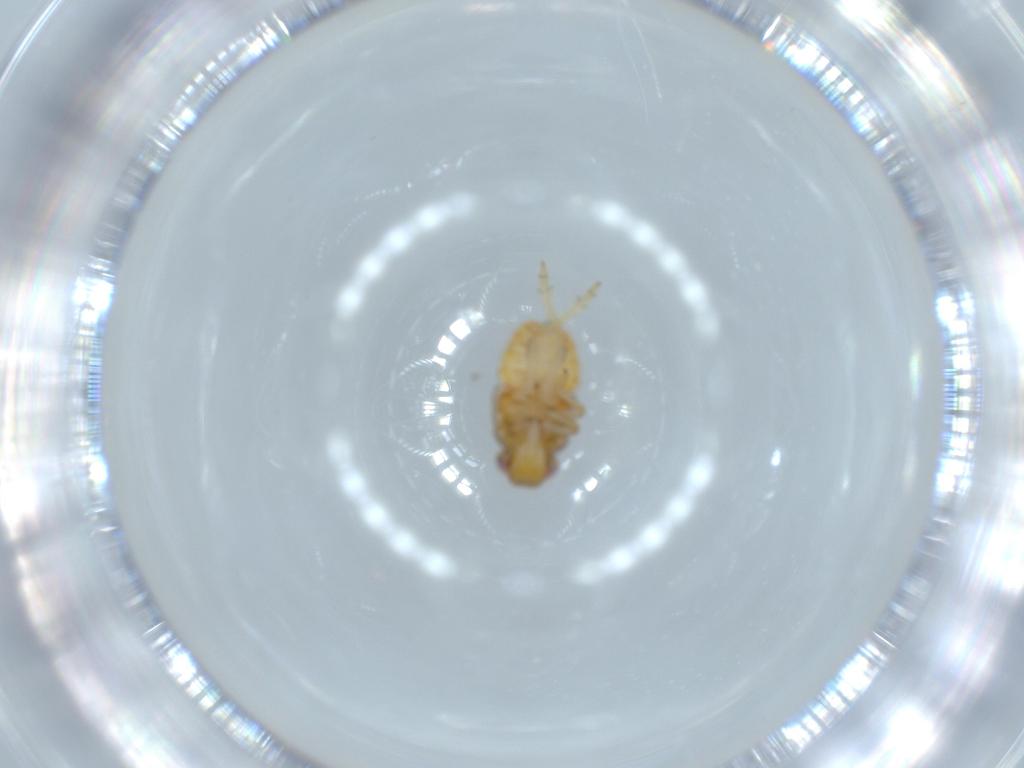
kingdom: Animalia
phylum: Arthropoda
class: Insecta
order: Hemiptera
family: Issidae
